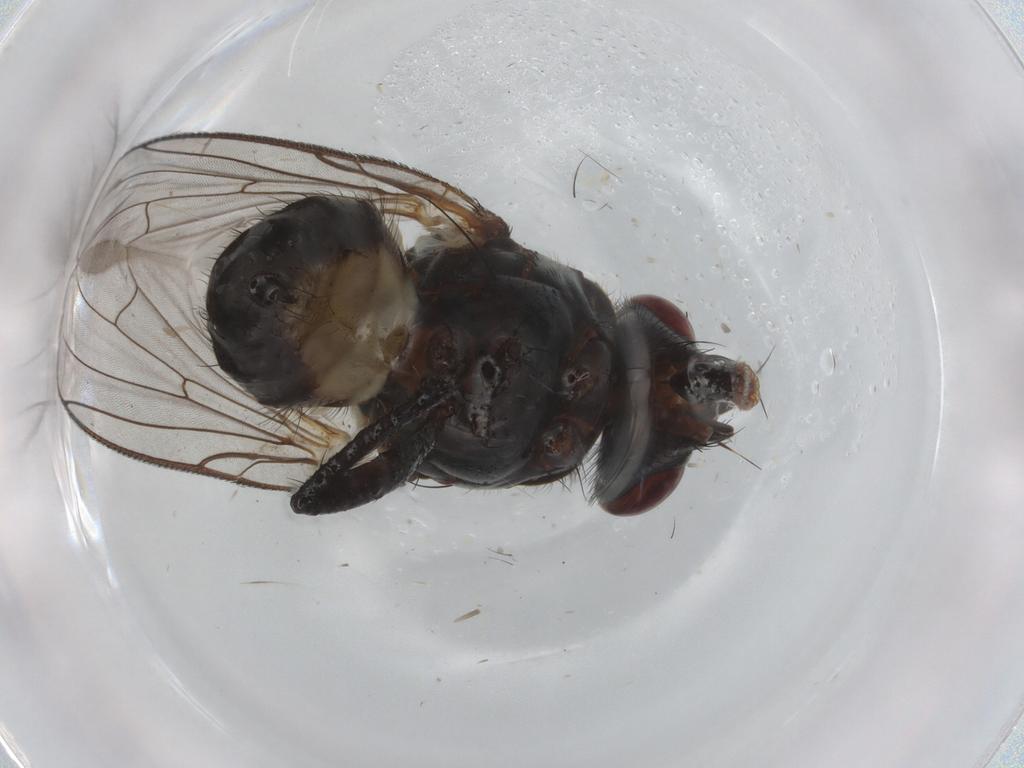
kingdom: Animalia
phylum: Arthropoda
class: Insecta
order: Diptera
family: Anthomyiidae
